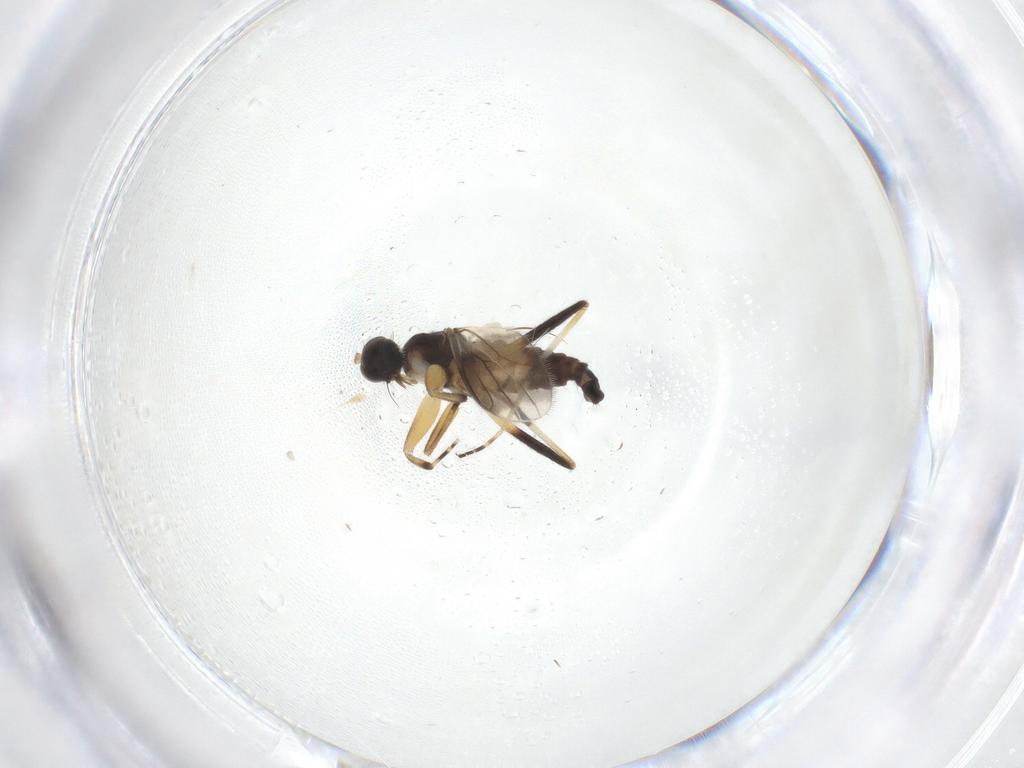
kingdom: Animalia
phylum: Arthropoda
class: Insecta
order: Diptera
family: Cecidomyiidae
